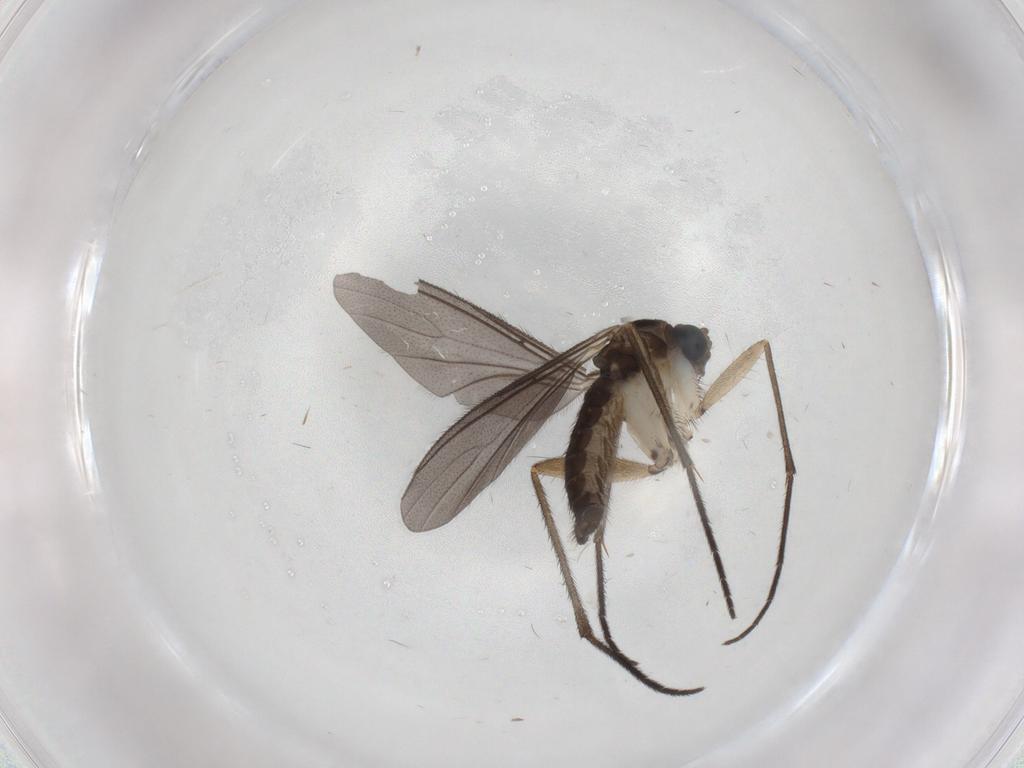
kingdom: Animalia
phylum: Arthropoda
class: Insecta
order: Diptera
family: Sciaridae
